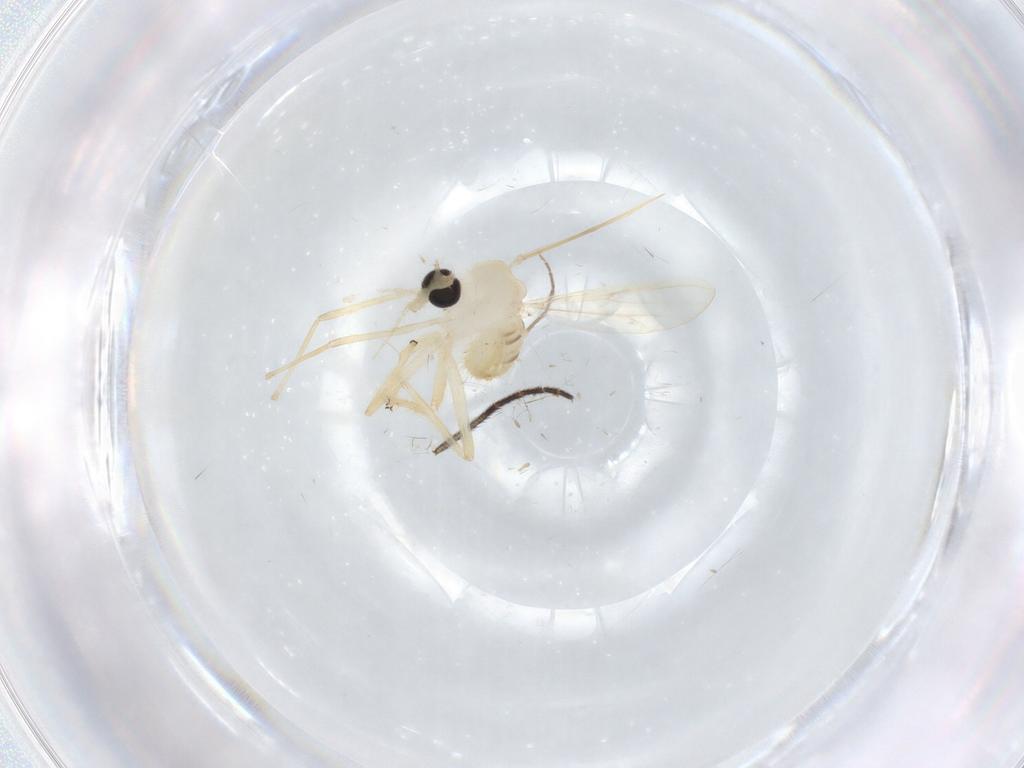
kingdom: Animalia
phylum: Arthropoda
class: Insecta
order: Diptera
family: Chironomidae
